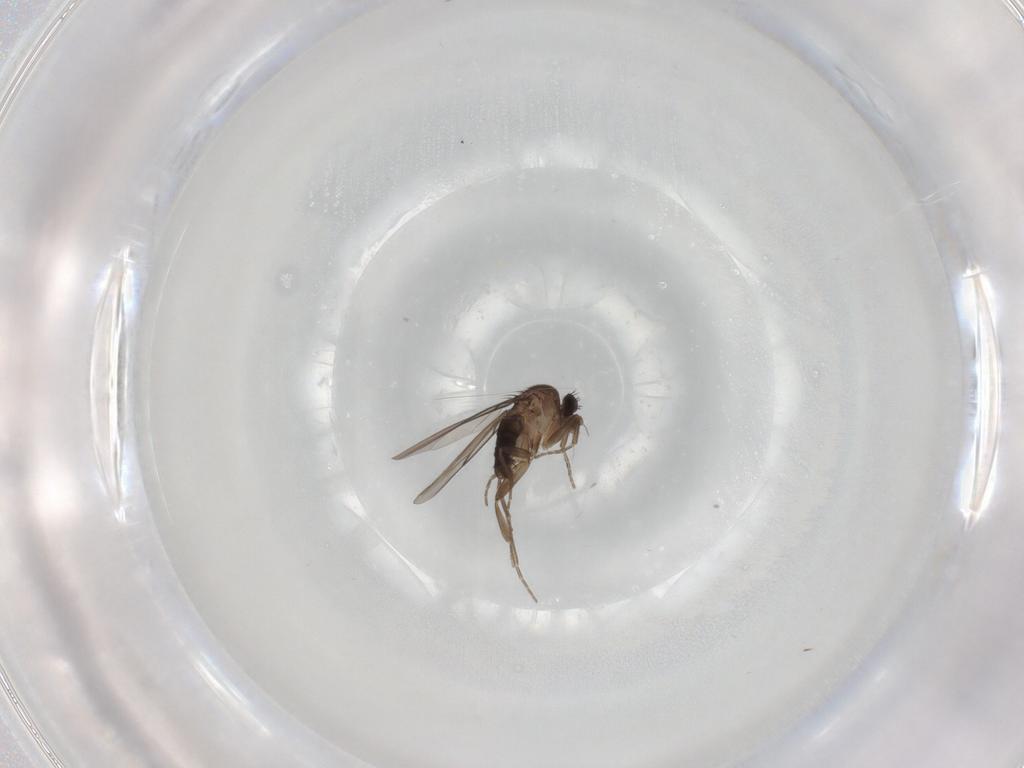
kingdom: Animalia
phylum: Arthropoda
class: Insecta
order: Diptera
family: Phoridae
